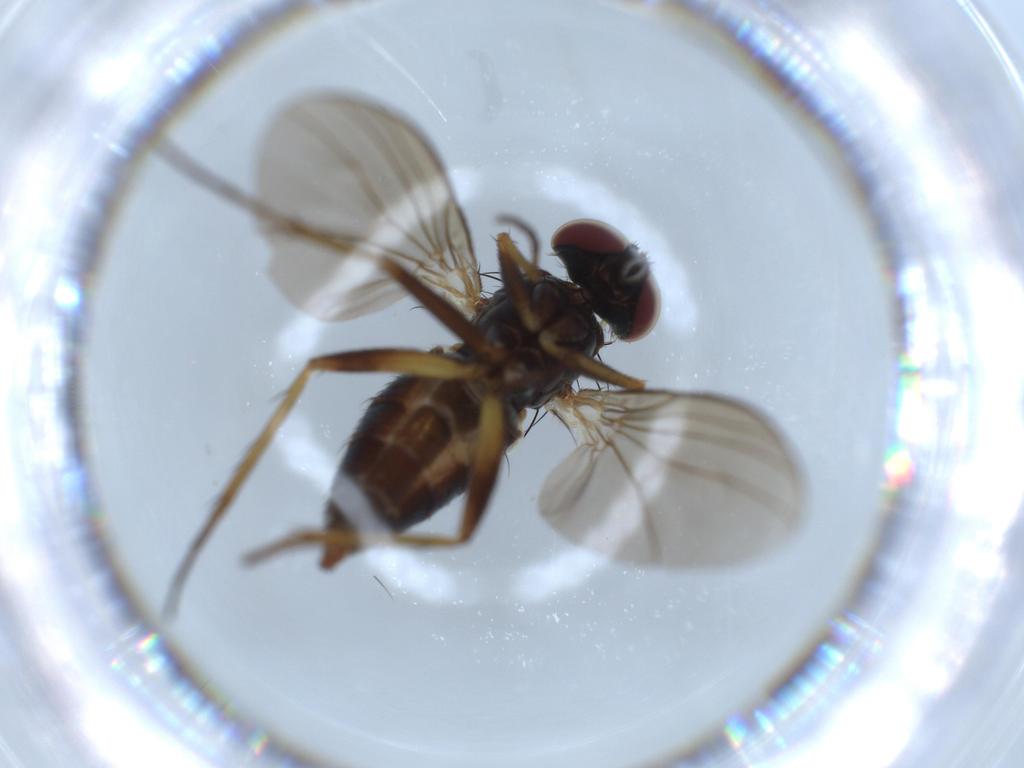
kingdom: Animalia
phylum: Arthropoda
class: Insecta
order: Diptera
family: Dolichopodidae
